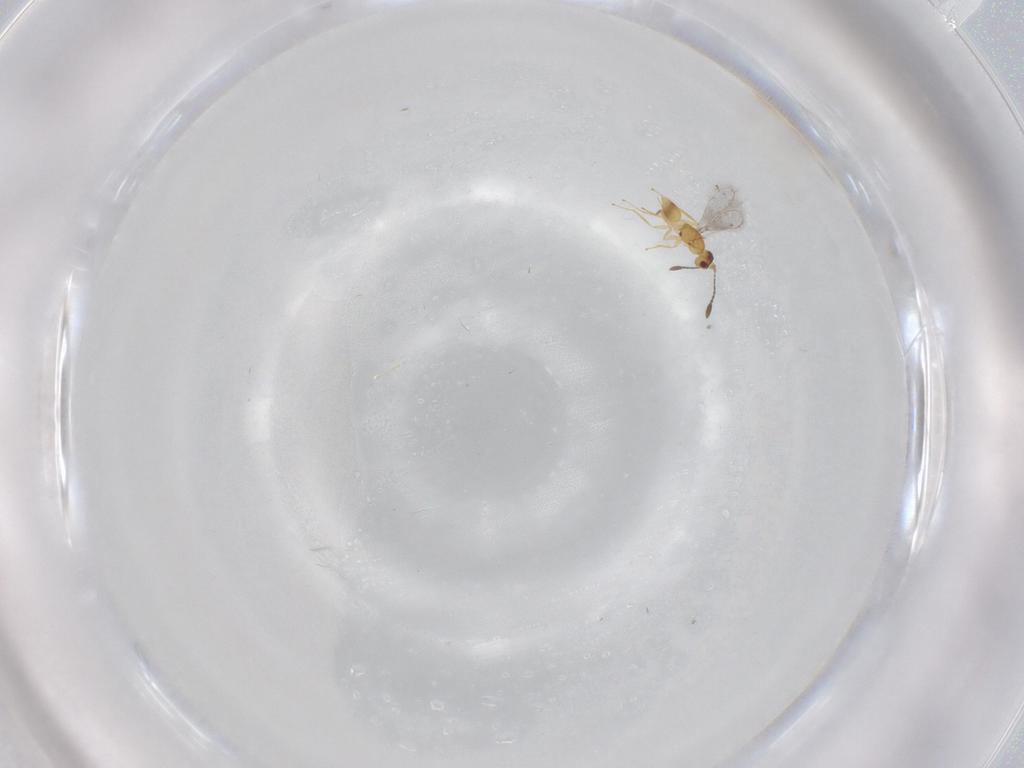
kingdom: Animalia
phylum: Arthropoda
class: Insecta
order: Hymenoptera
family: Mymaridae
